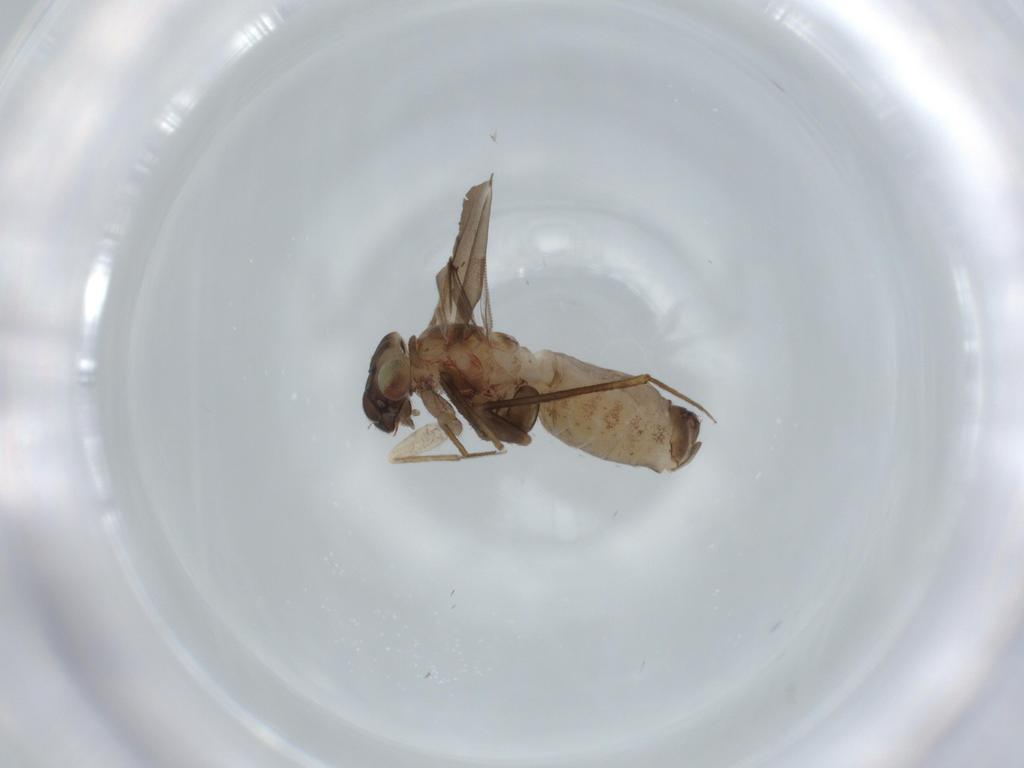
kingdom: Animalia
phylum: Arthropoda
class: Insecta
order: Psocodea
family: Lepidopsocidae
